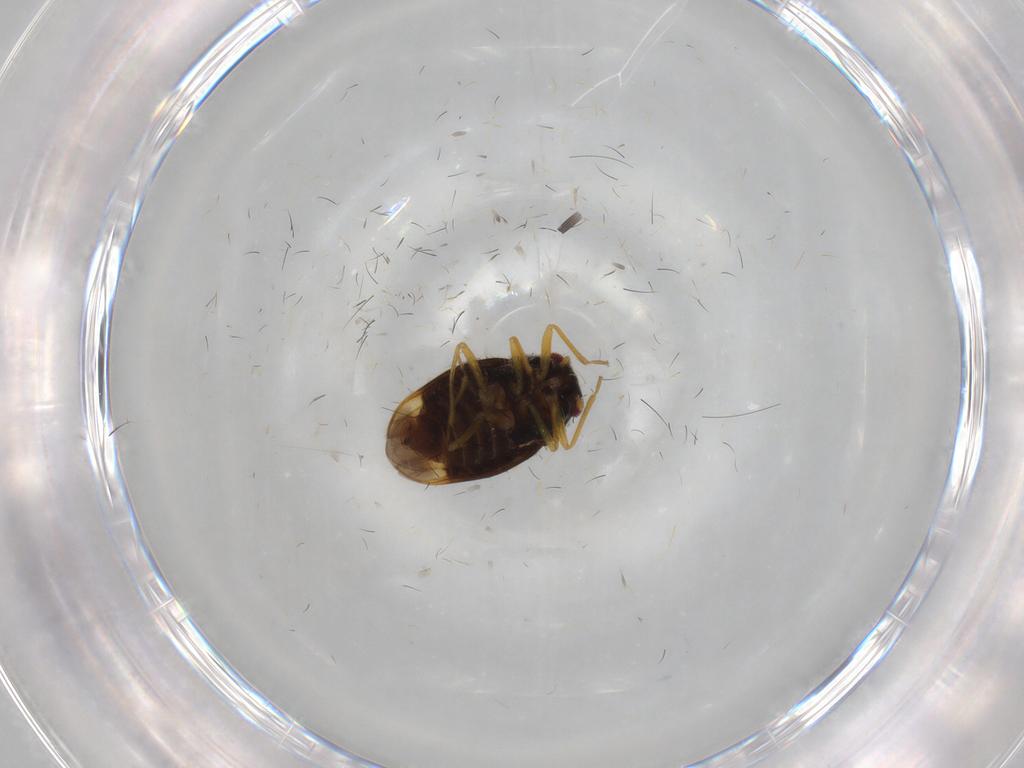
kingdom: Animalia
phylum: Arthropoda
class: Insecta
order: Hemiptera
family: Schizopteridae
